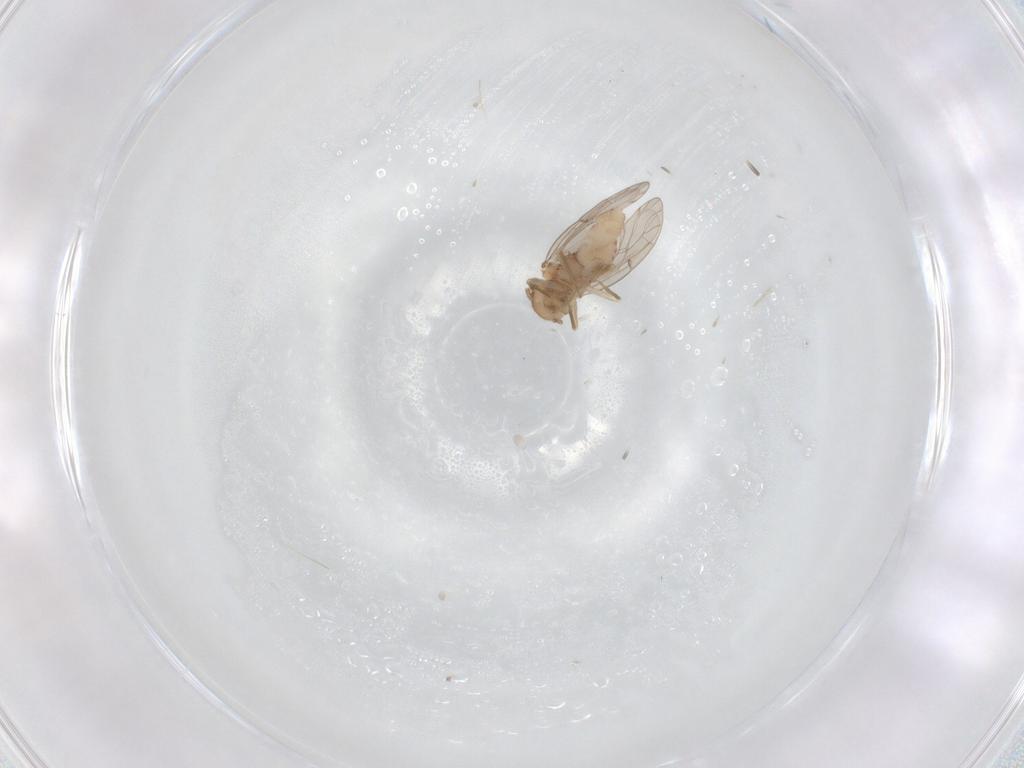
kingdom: Animalia
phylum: Arthropoda
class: Insecta
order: Psocodea
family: Ectopsocidae
